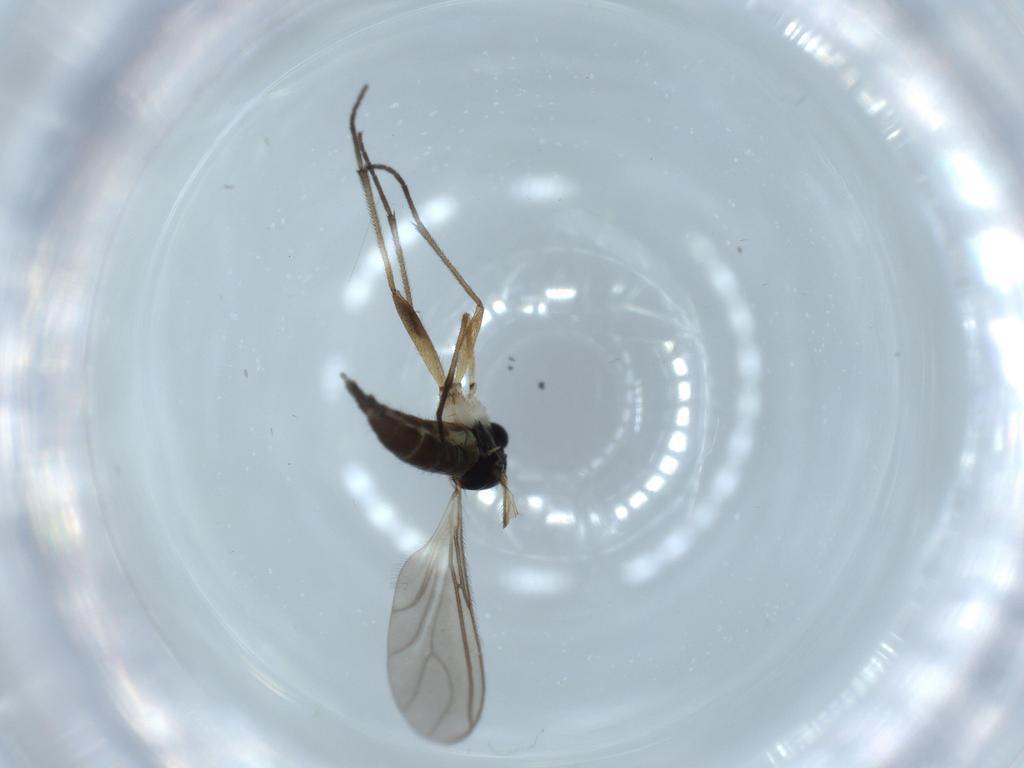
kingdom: Animalia
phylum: Arthropoda
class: Insecta
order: Diptera
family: Sciaridae
